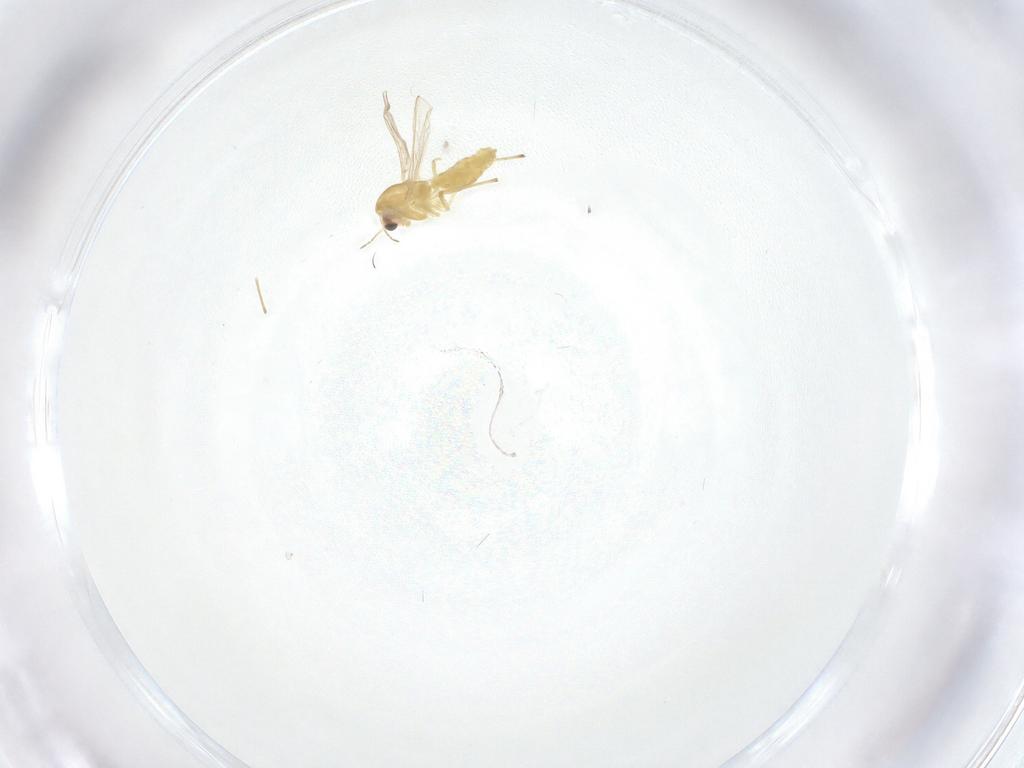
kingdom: Animalia
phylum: Arthropoda
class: Insecta
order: Diptera
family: Chironomidae
